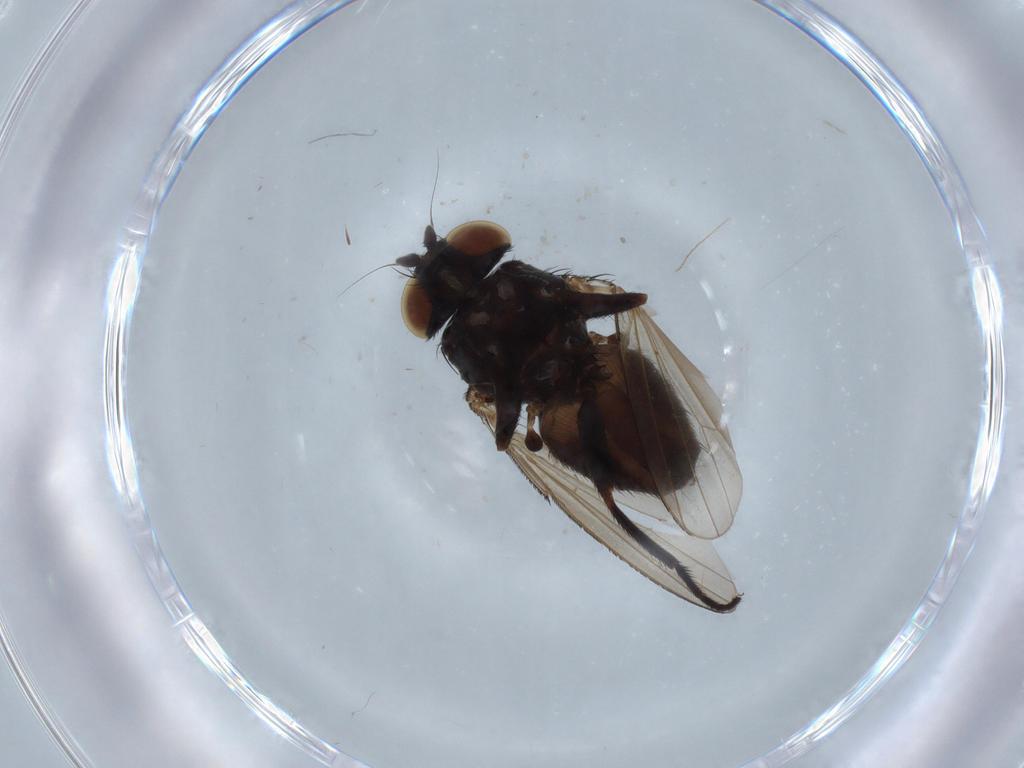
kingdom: Animalia
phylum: Arthropoda
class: Insecta
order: Diptera
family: Milichiidae
